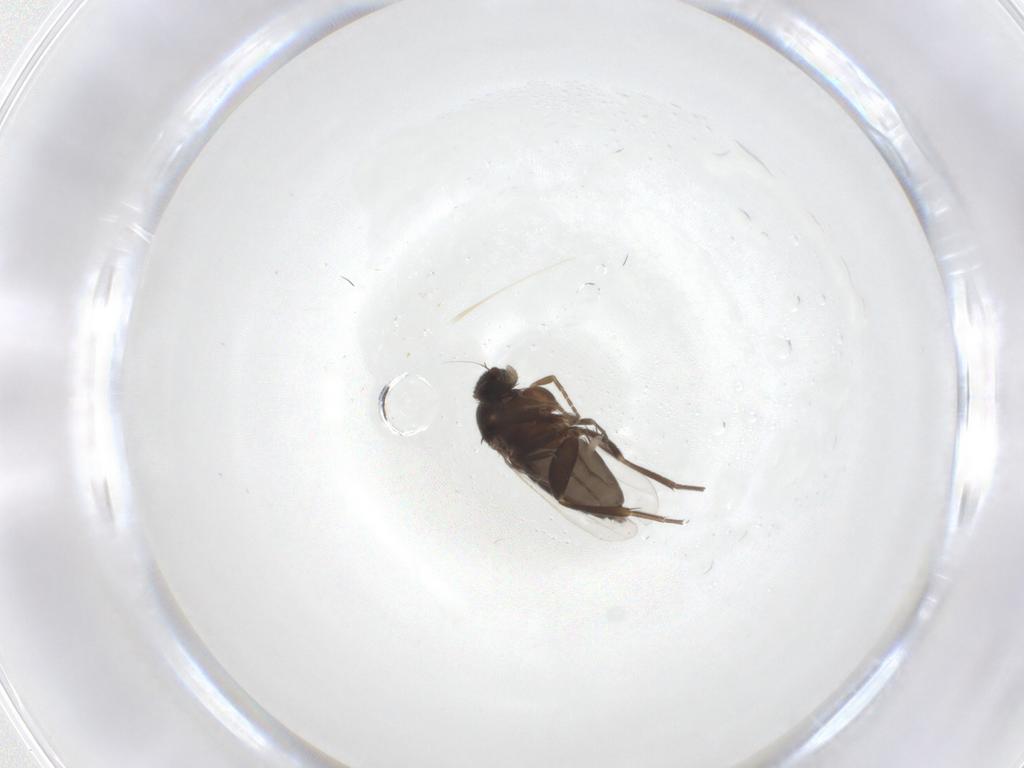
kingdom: Animalia
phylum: Arthropoda
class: Insecta
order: Diptera
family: Phoridae
